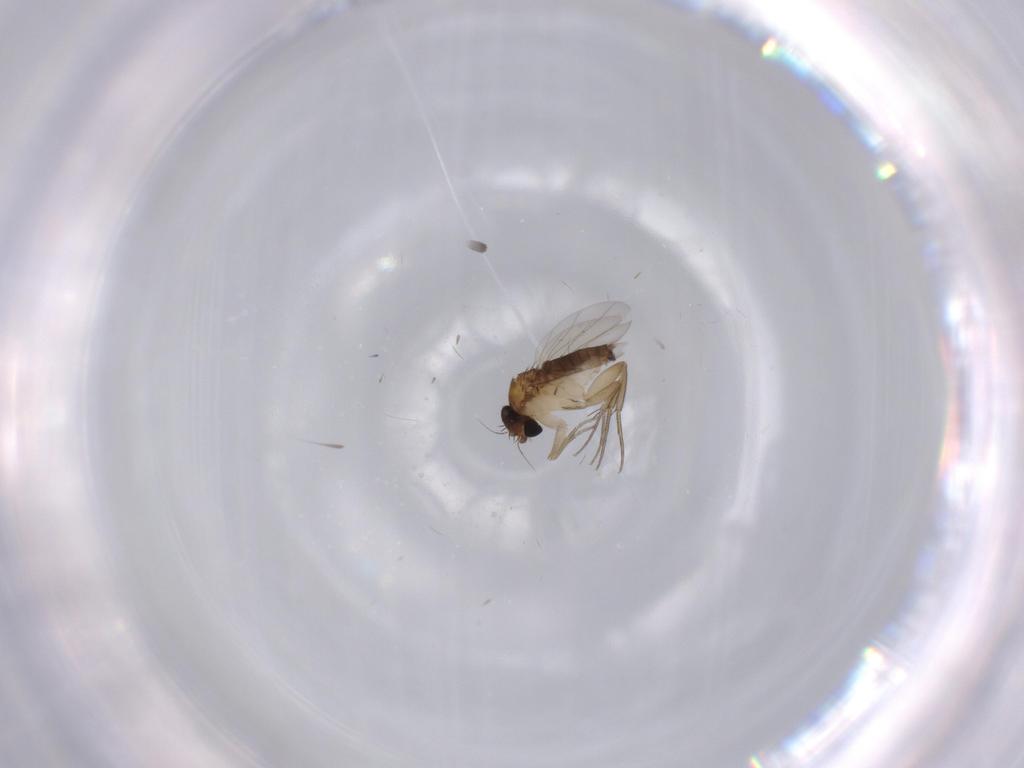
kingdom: Animalia
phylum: Arthropoda
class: Insecta
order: Diptera
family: Phoridae
